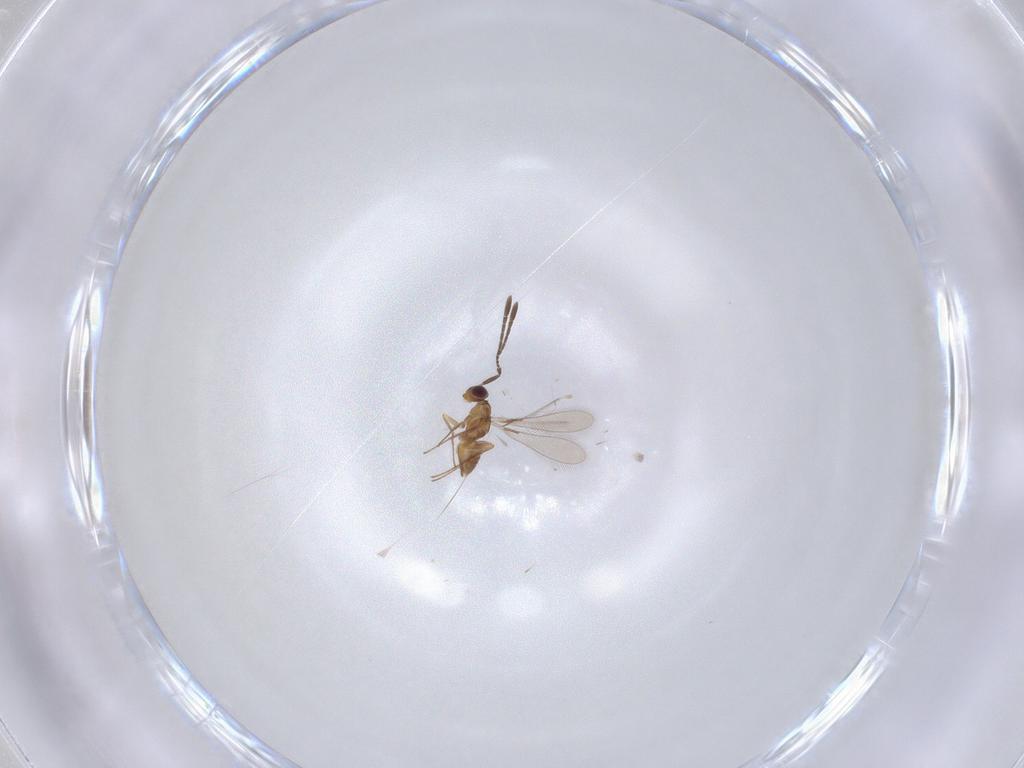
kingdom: Animalia
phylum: Arthropoda
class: Insecta
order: Hymenoptera
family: Mymaridae
